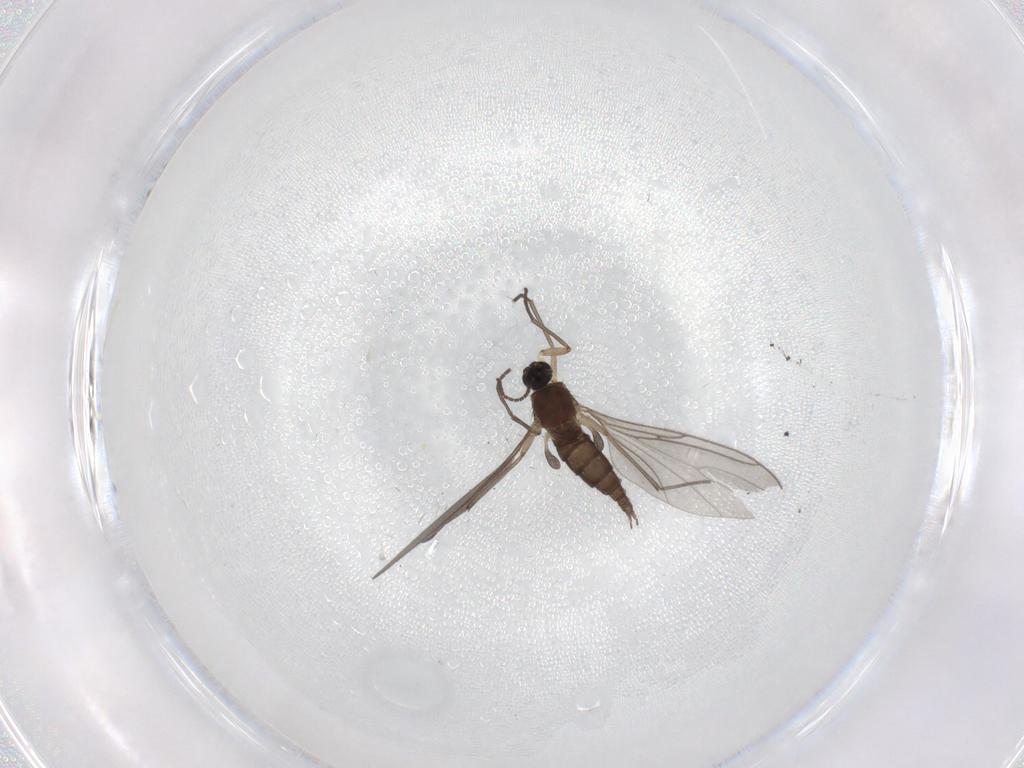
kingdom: Animalia
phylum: Arthropoda
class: Insecta
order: Diptera
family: Sciaridae
